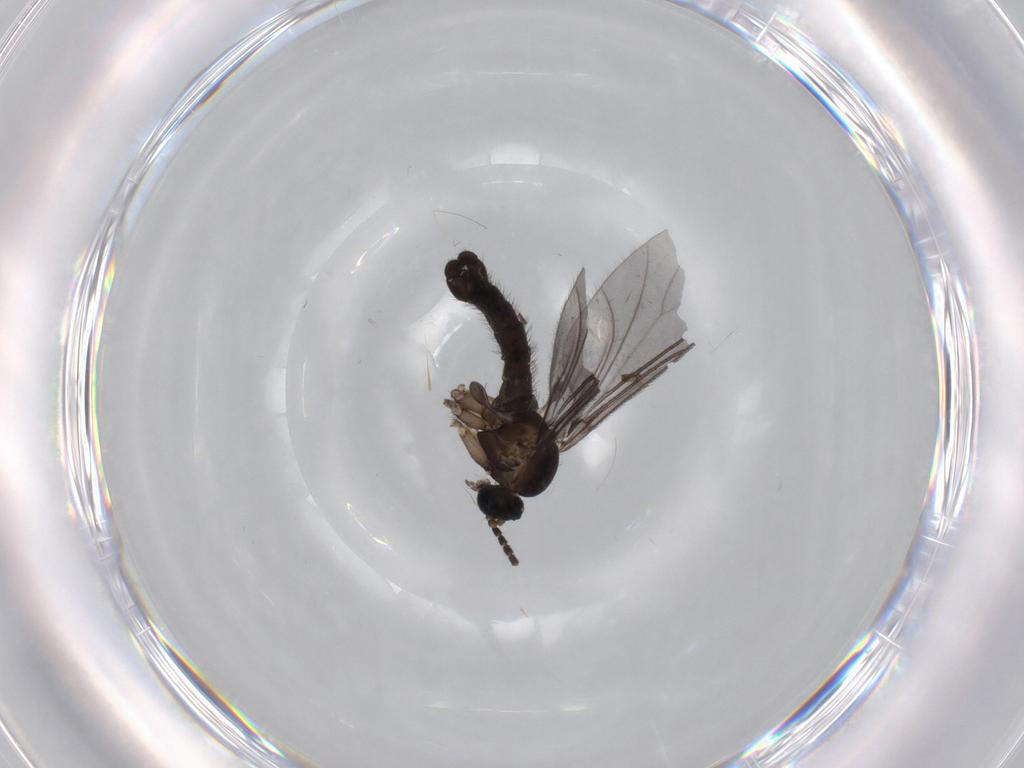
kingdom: Animalia
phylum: Arthropoda
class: Insecta
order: Diptera
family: Sciaridae
